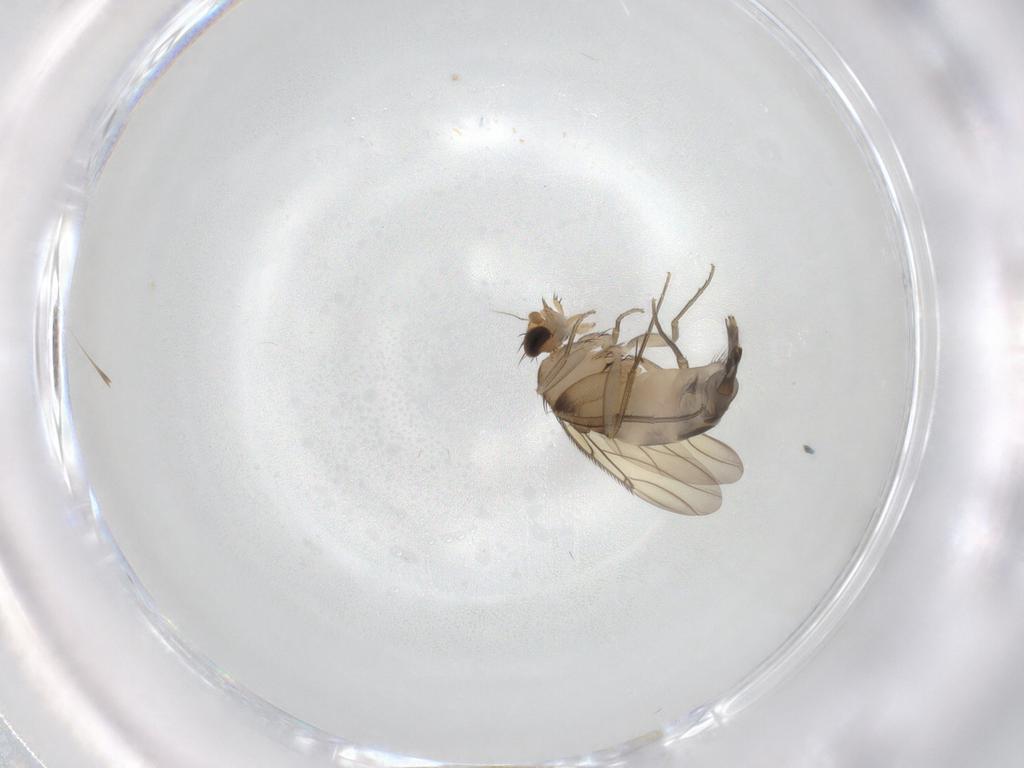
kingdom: Animalia
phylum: Arthropoda
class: Insecta
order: Diptera
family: Phoridae
